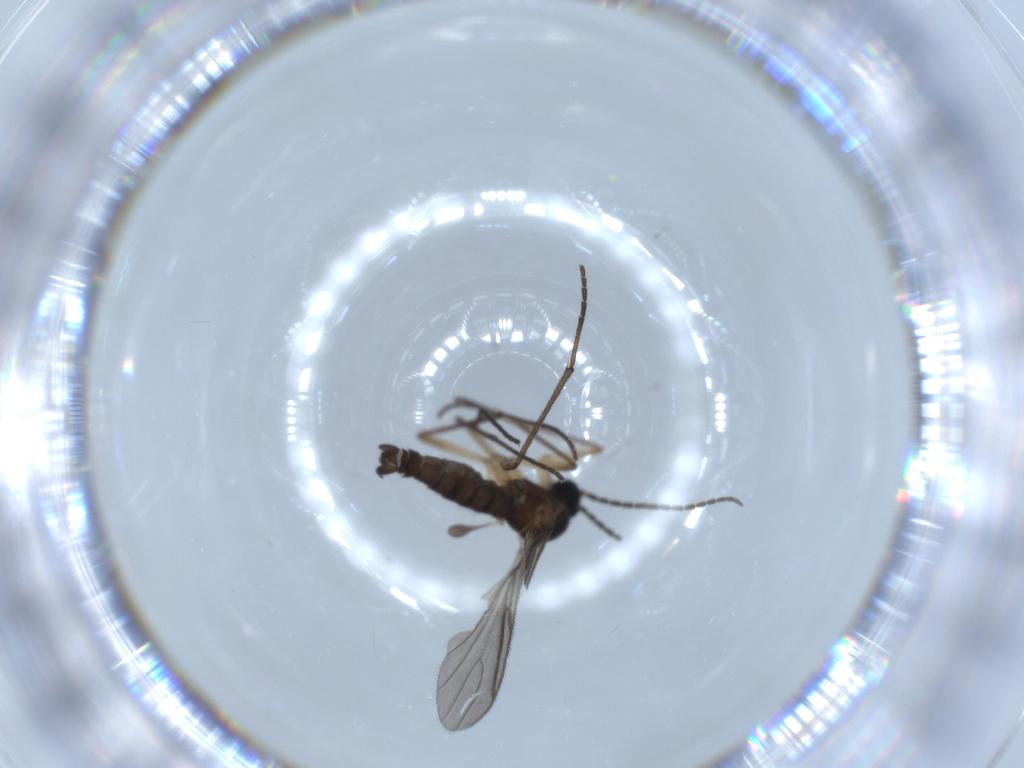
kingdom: Animalia
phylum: Arthropoda
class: Insecta
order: Diptera
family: Sciaridae
